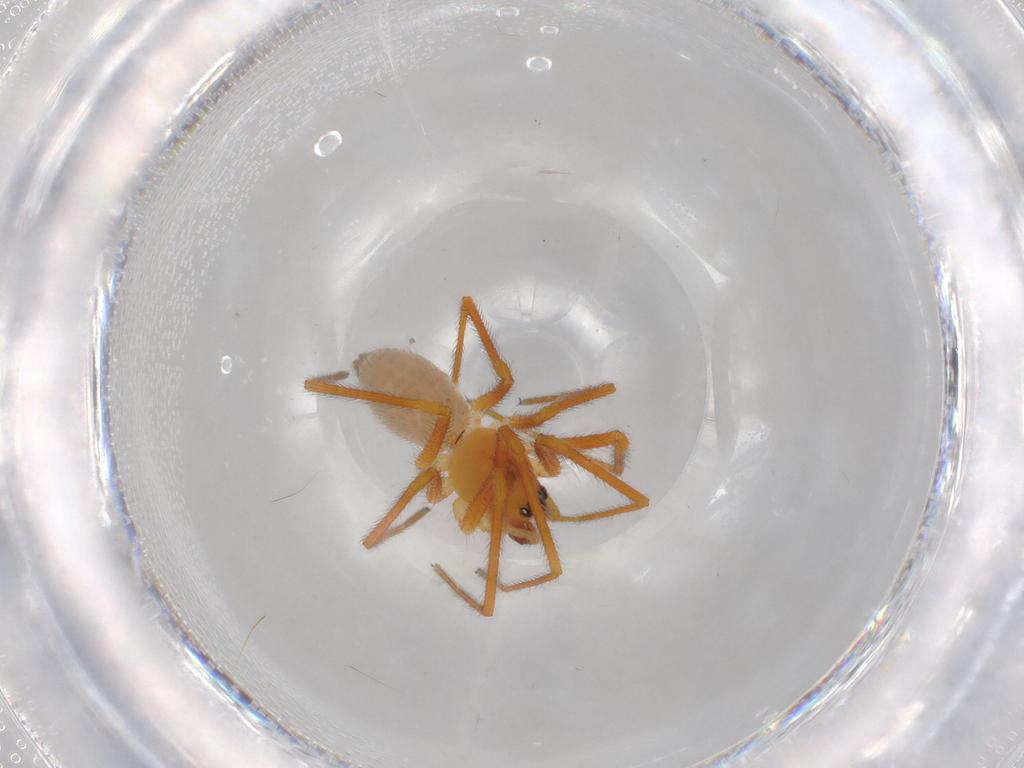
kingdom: Animalia
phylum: Arthropoda
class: Arachnida
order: Araneae
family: Linyphiidae
